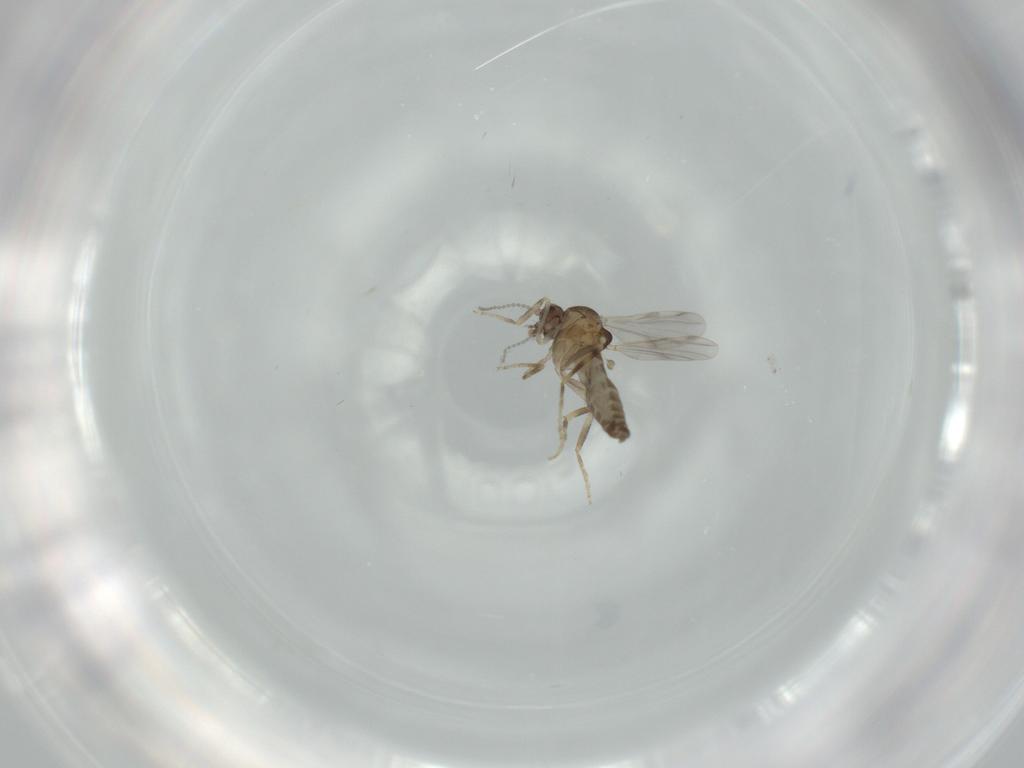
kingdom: Animalia
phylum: Arthropoda
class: Insecta
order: Diptera
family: Ceratopogonidae
